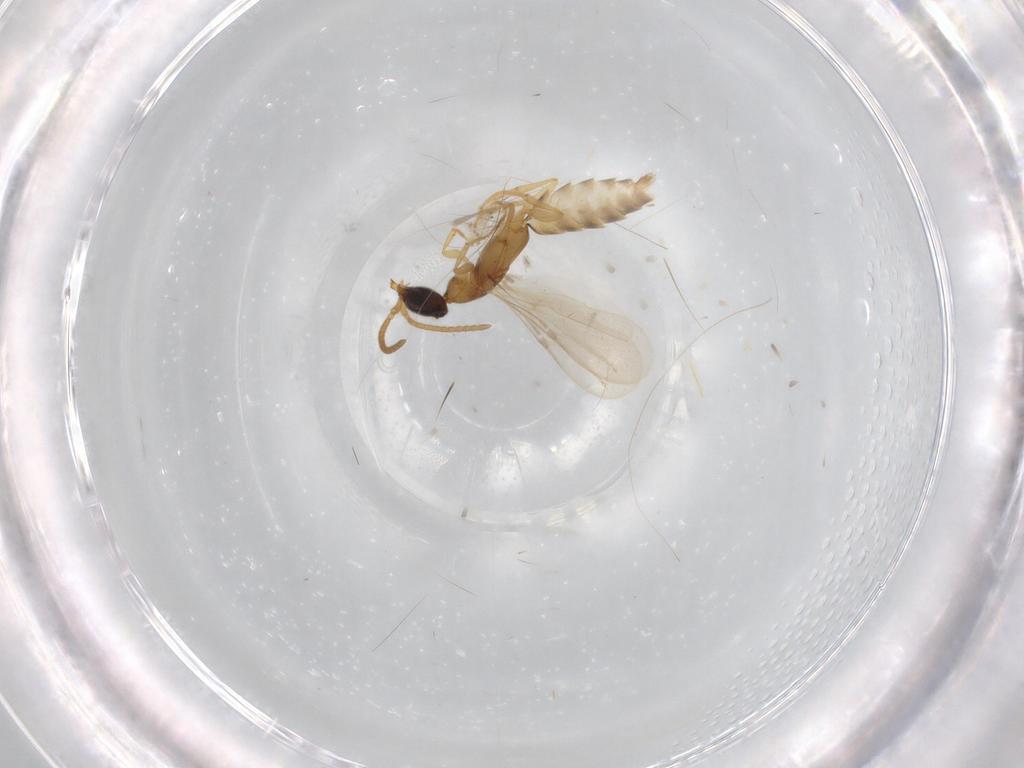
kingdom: Animalia
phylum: Arthropoda
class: Insecta
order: Hymenoptera
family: Bethylidae
